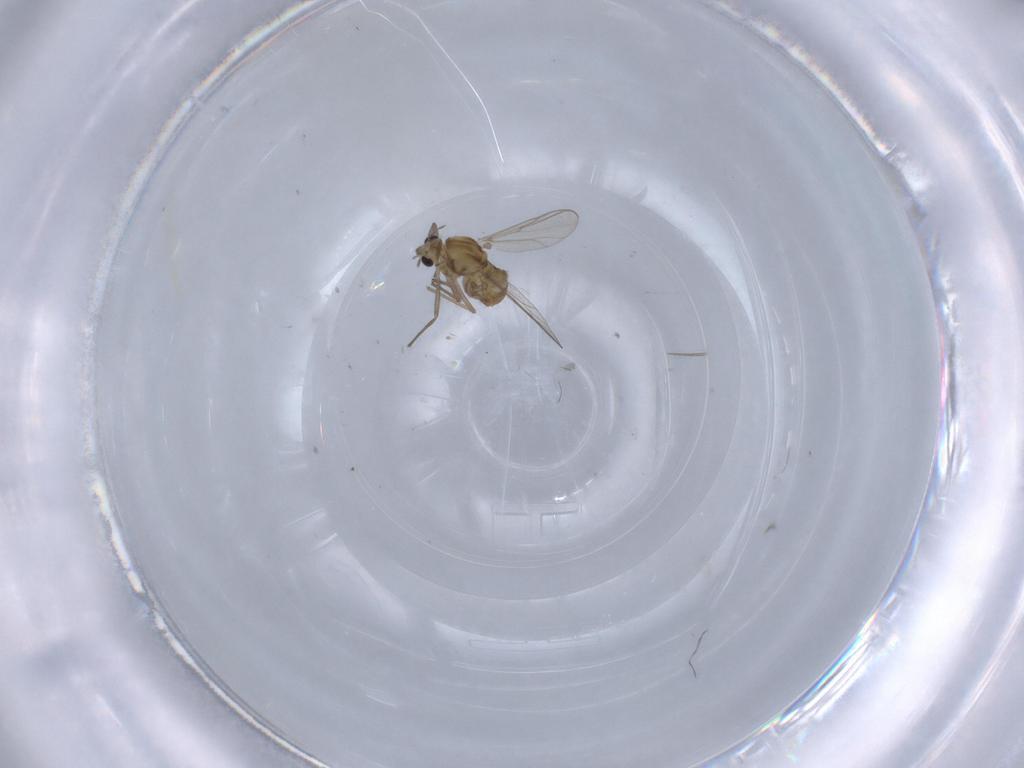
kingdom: Animalia
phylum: Arthropoda
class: Insecta
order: Diptera
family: Chironomidae
